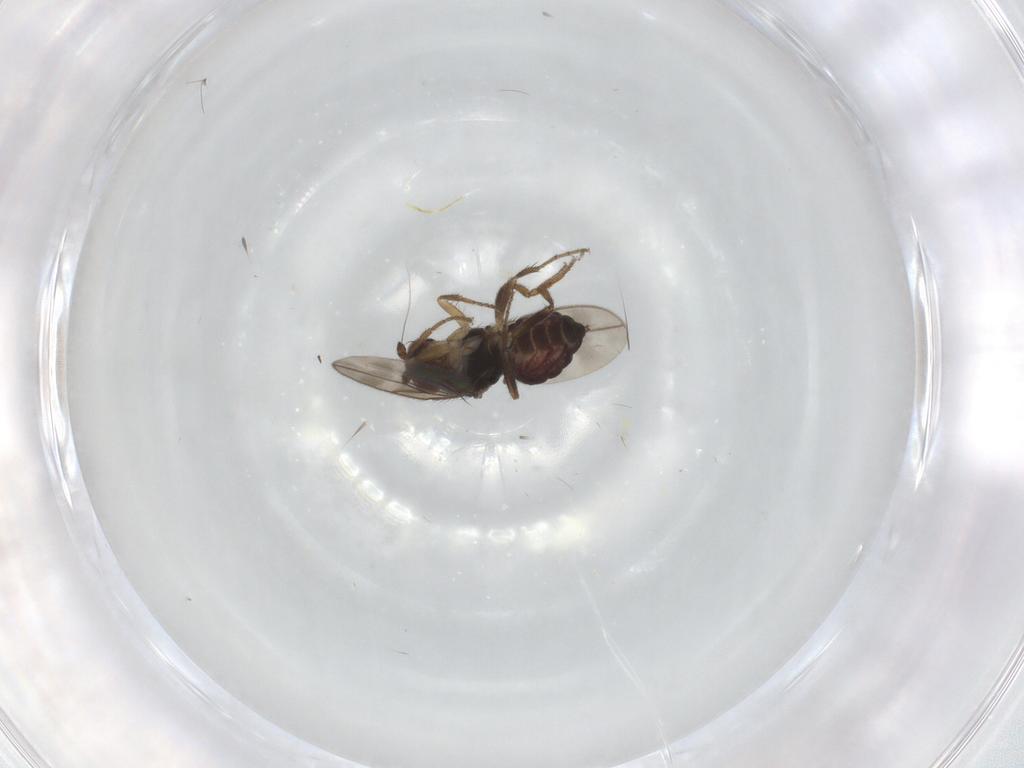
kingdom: Animalia
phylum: Arthropoda
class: Insecta
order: Diptera
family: Sphaeroceridae
